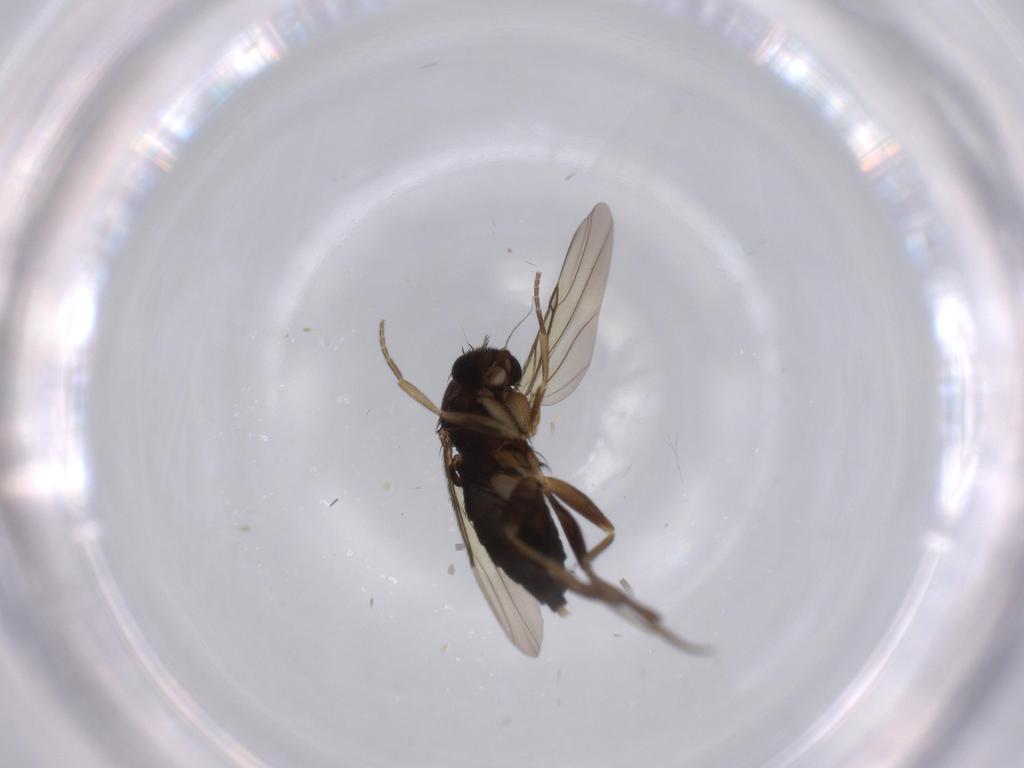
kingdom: Animalia
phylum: Arthropoda
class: Insecta
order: Diptera
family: Phoridae
